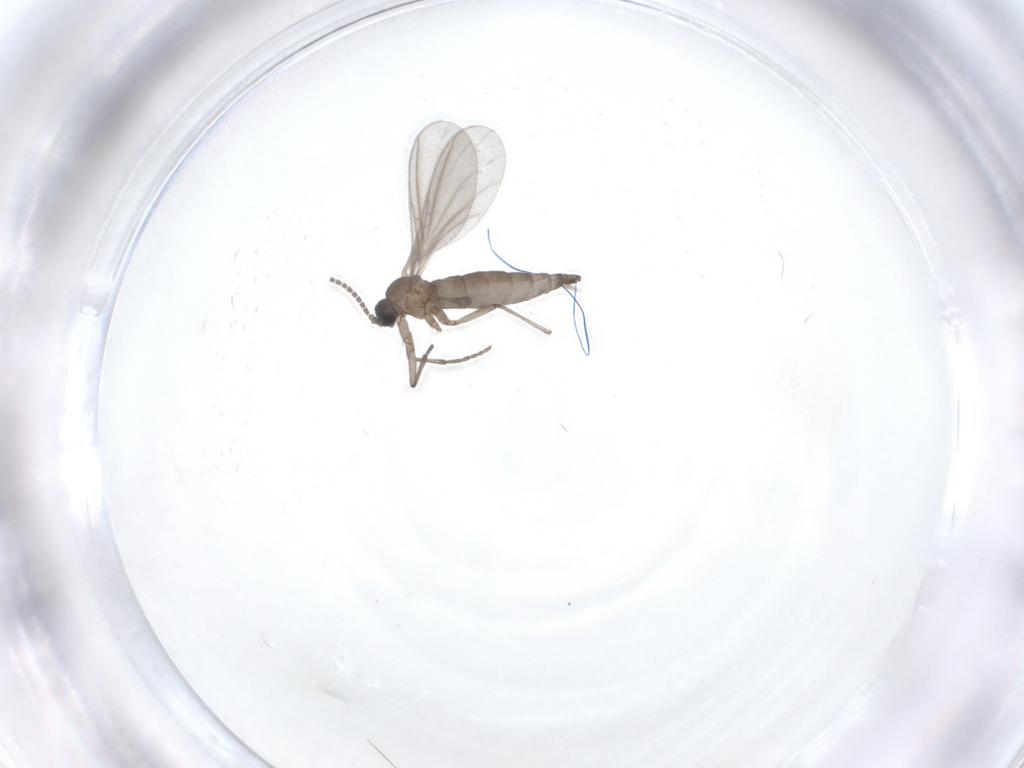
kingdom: Animalia
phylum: Arthropoda
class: Insecta
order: Diptera
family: Sciaridae
